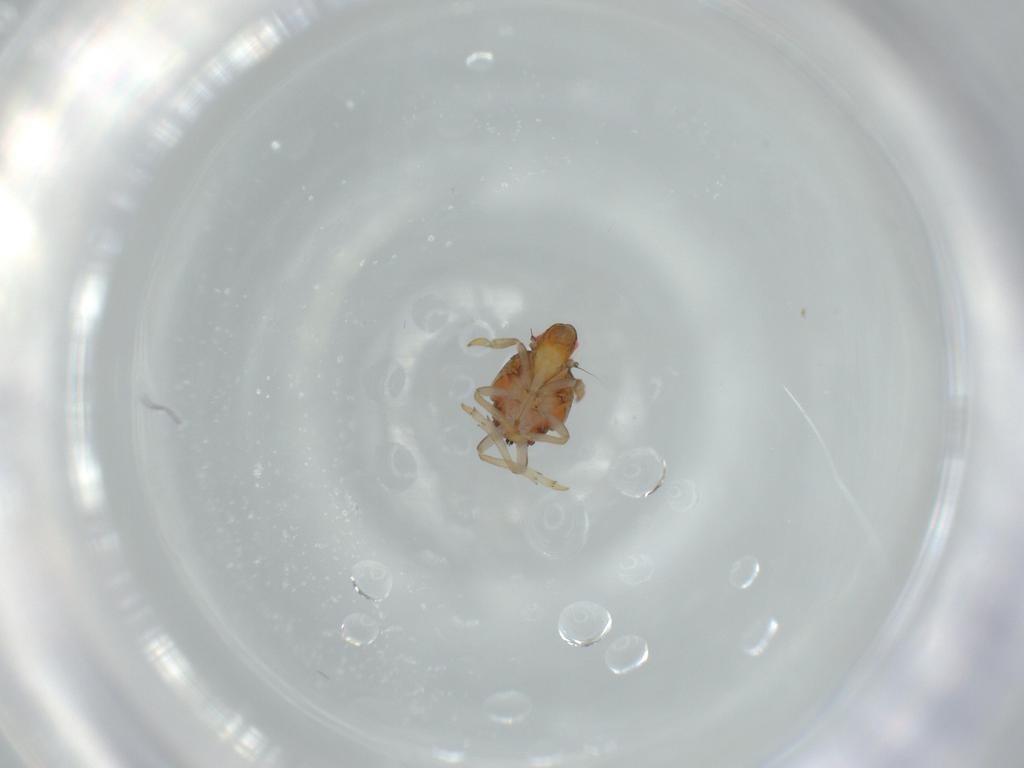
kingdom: Animalia
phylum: Arthropoda
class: Insecta
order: Hemiptera
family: Issidae
